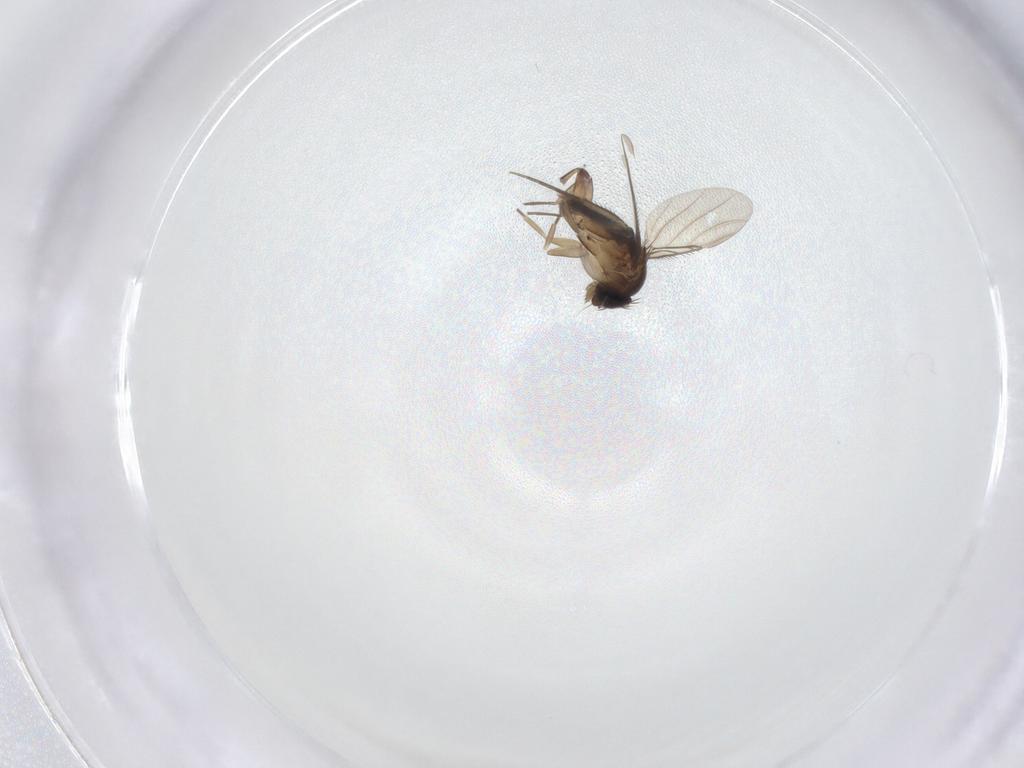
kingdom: Animalia
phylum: Arthropoda
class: Insecta
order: Diptera
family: Phoridae
